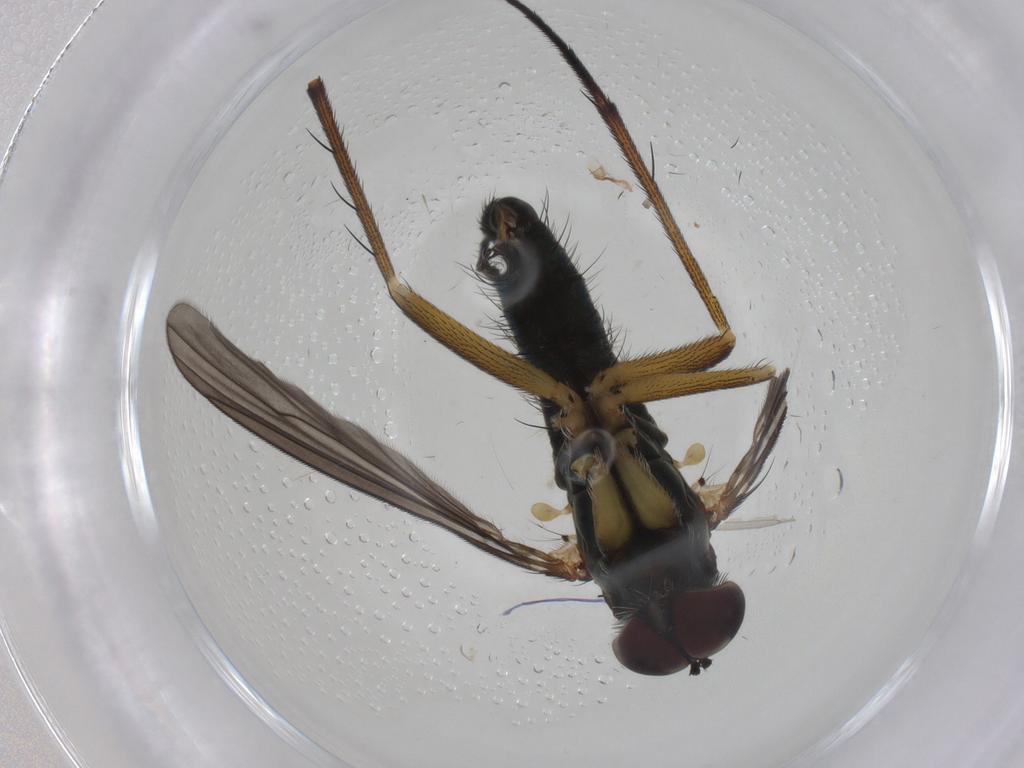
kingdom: Animalia
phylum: Arthropoda
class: Insecta
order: Diptera
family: Dolichopodidae
